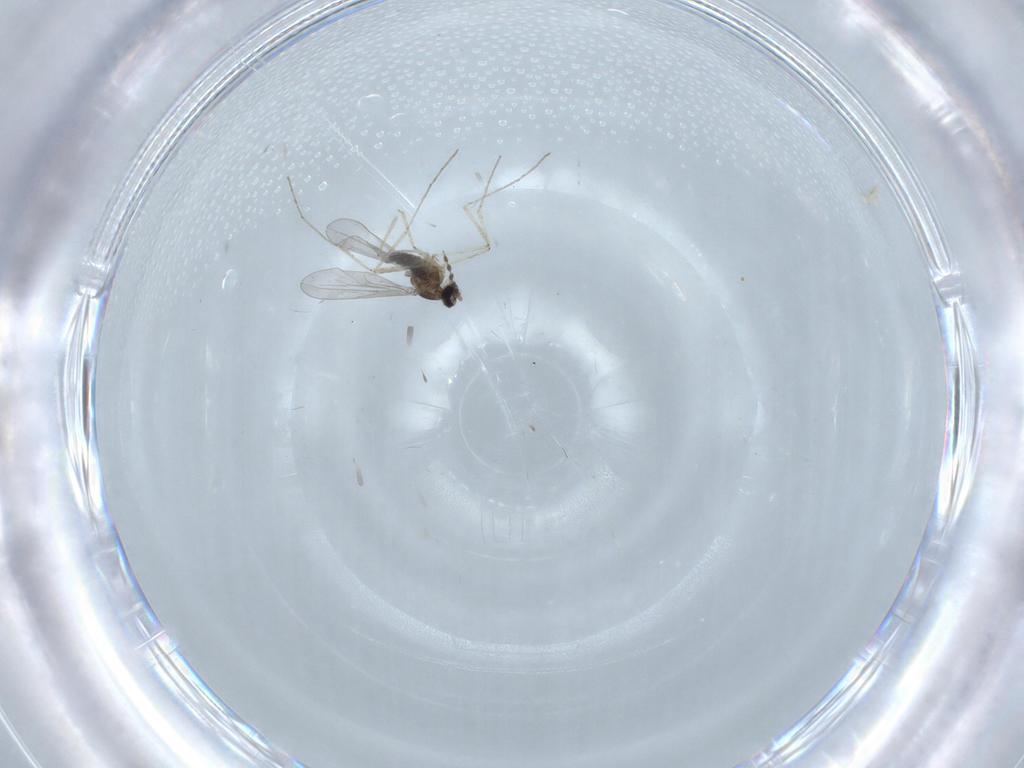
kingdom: Animalia
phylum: Arthropoda
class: Insecta
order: Diptera
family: Cecidomyiidae
